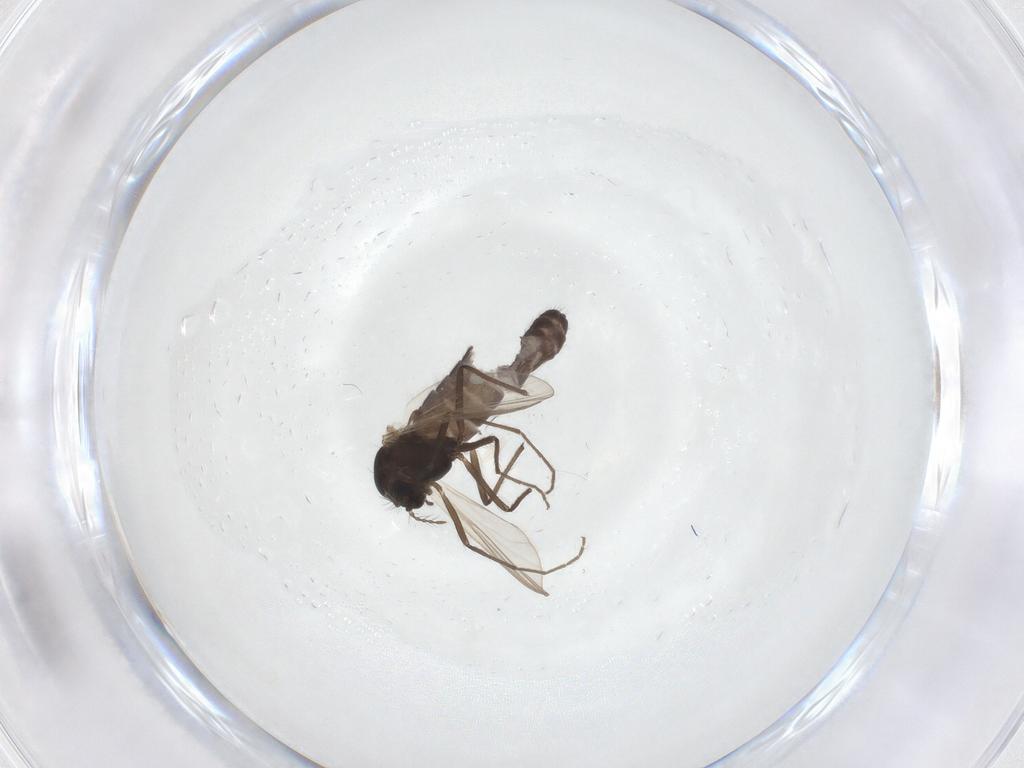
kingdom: Animalia
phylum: Arthropoda
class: Insecta
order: Diptera
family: Chironomidae
